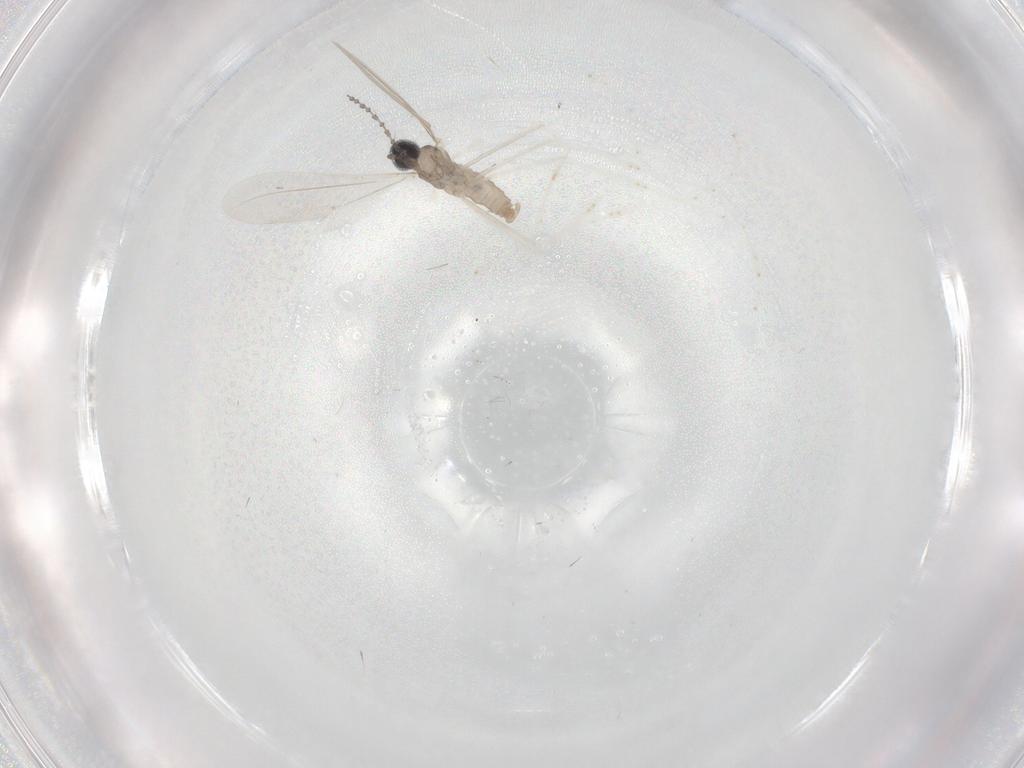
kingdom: Animalia
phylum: Arthropoda
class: Insecta
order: Diptera
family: Cecidomyiidae
